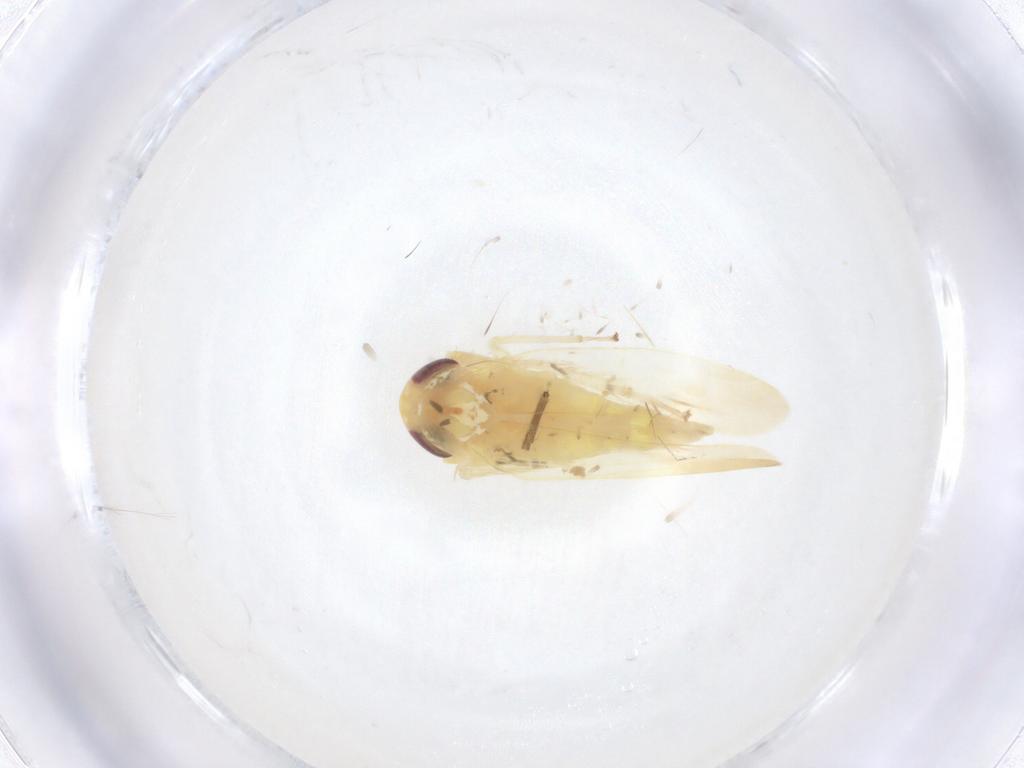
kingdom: Animalia
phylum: Arthropoda
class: Insecta
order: Hemiptera
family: Cicadellidae
